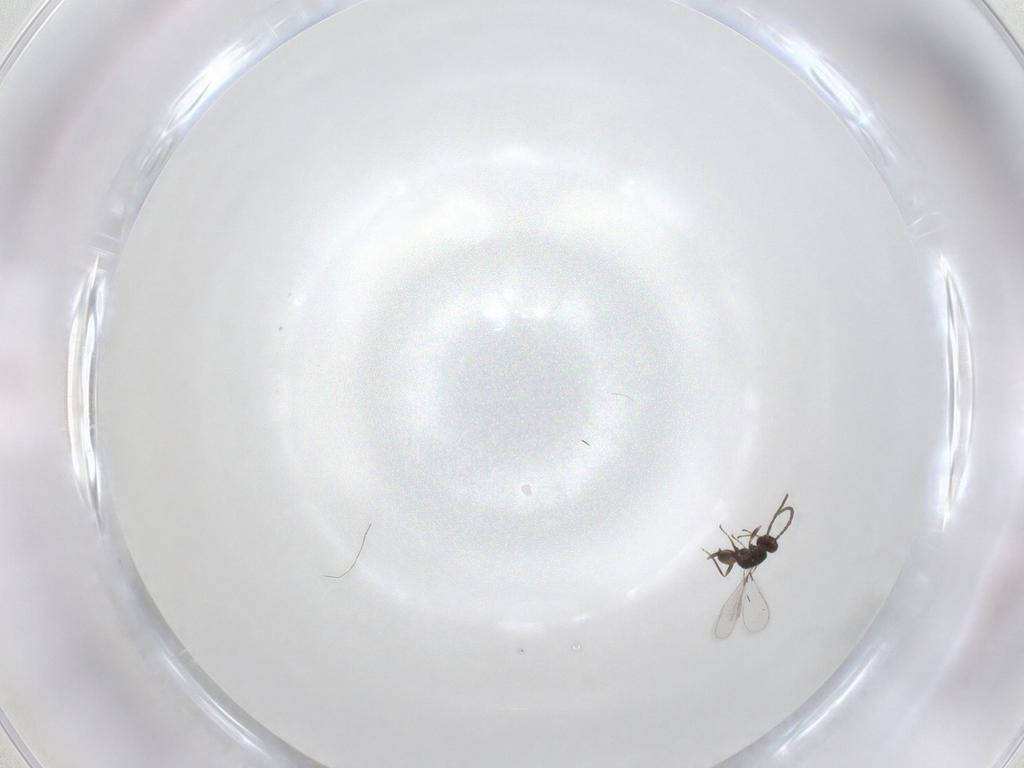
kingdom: Animalia
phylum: Arthropoda
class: Insecta
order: Hymenoptera
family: Mymaridae
